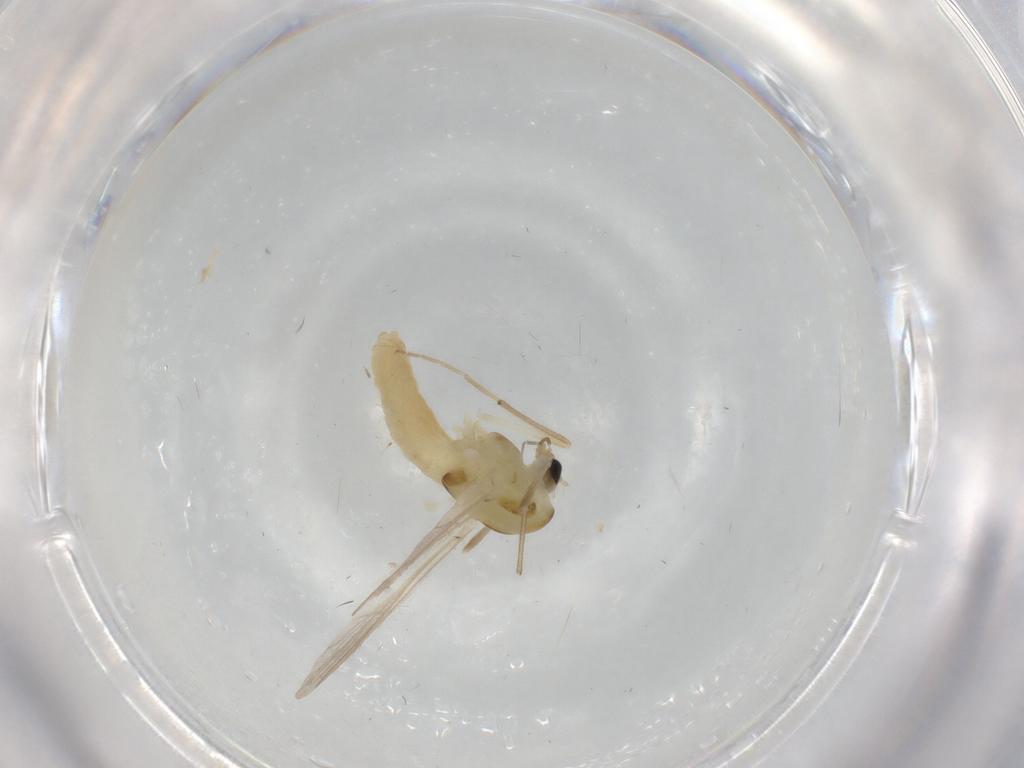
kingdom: Animalia
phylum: Arthropoda
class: Insecta
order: Diptera
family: Chironomidae
